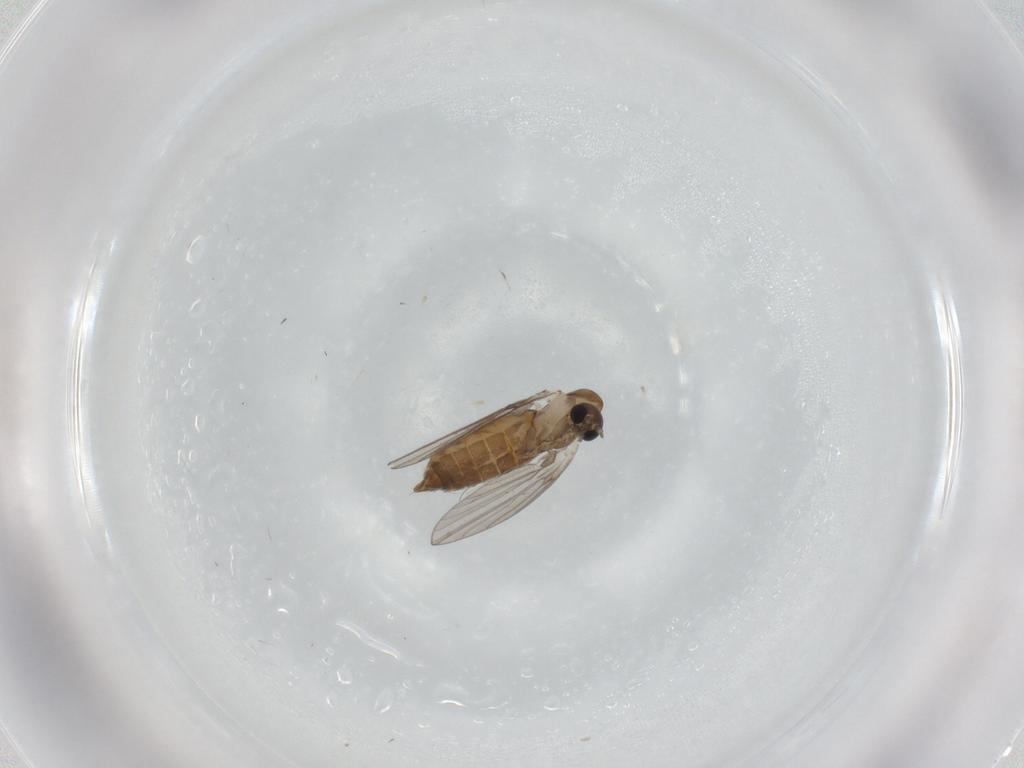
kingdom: Animalia
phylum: Arthropoda
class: Insecta
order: Diptera
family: Psychodidae
